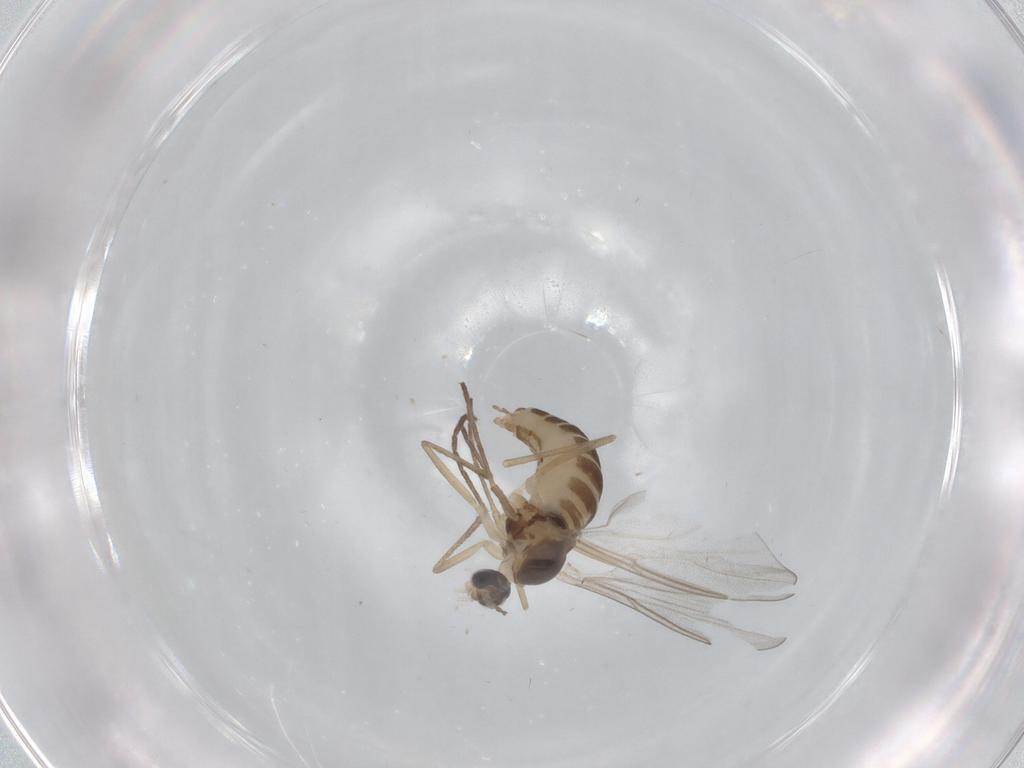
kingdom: Animalia
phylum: Arthropoda
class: Insecta
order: Diptera
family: Cecidomyiidae
